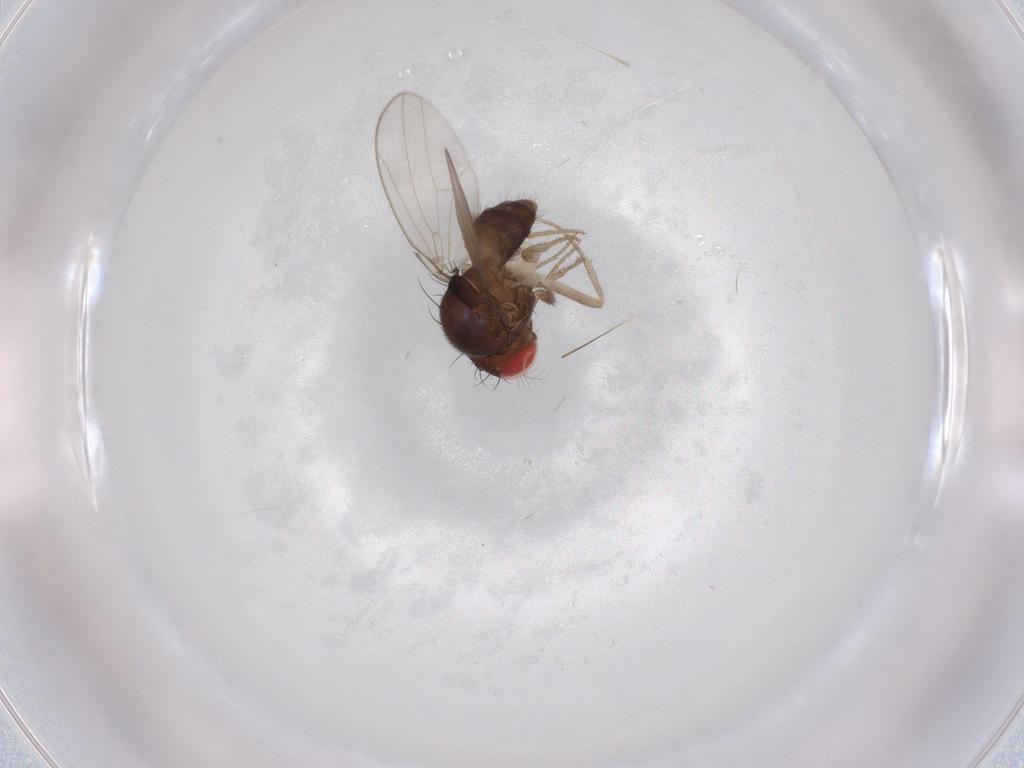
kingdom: Animalia
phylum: Arthropoda
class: Insecta
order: Diptera
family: Drosophilidae
